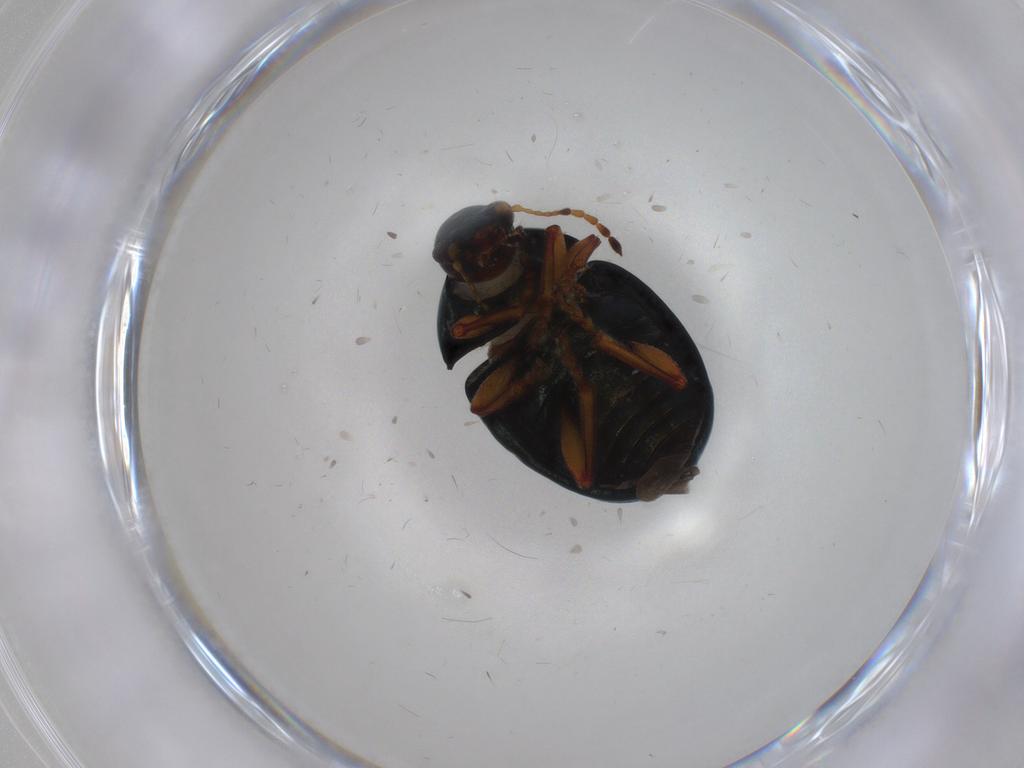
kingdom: Animalia
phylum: Arthropoda
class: Insecta
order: Coleoptera
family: Chrysomelidae
